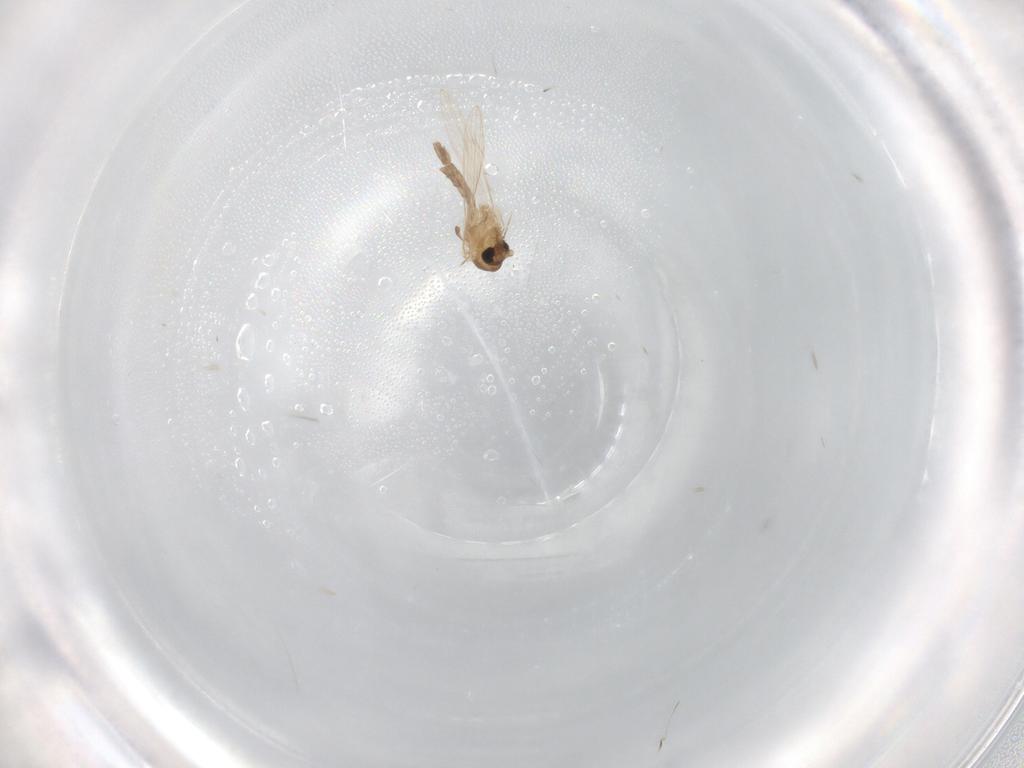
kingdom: Animalia
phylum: Arthropoda
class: Insecta
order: Diptera
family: Psychodidae
